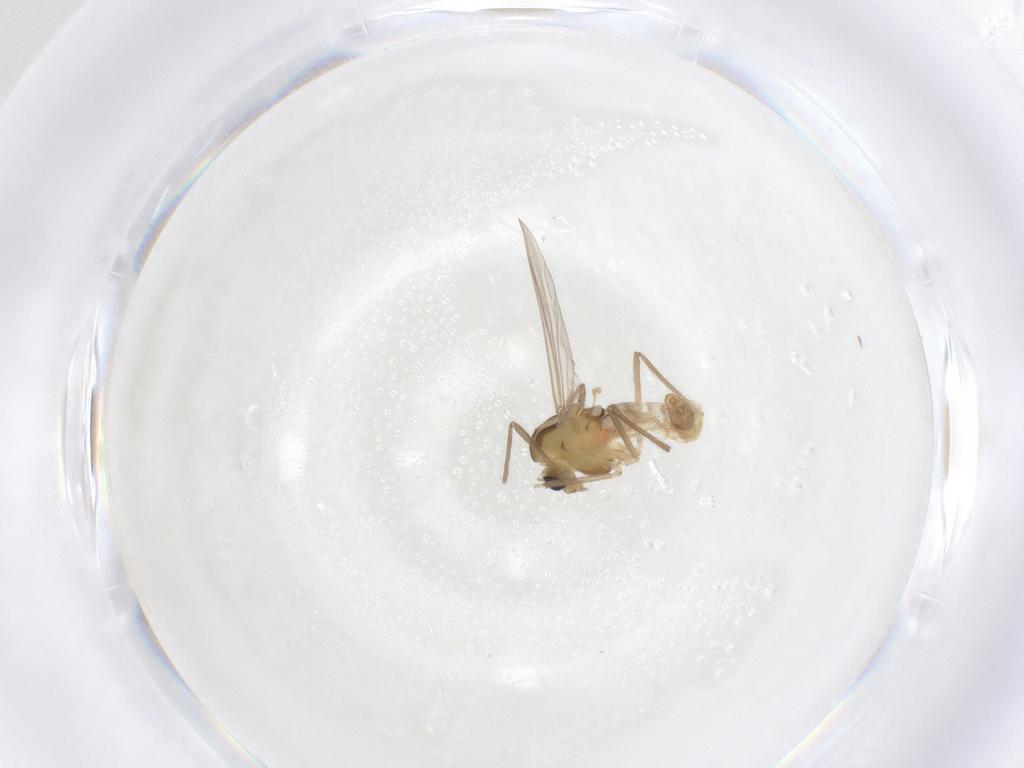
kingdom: Animalia
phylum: Arthropoda
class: Insecta
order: Diptera
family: Chironomidae
